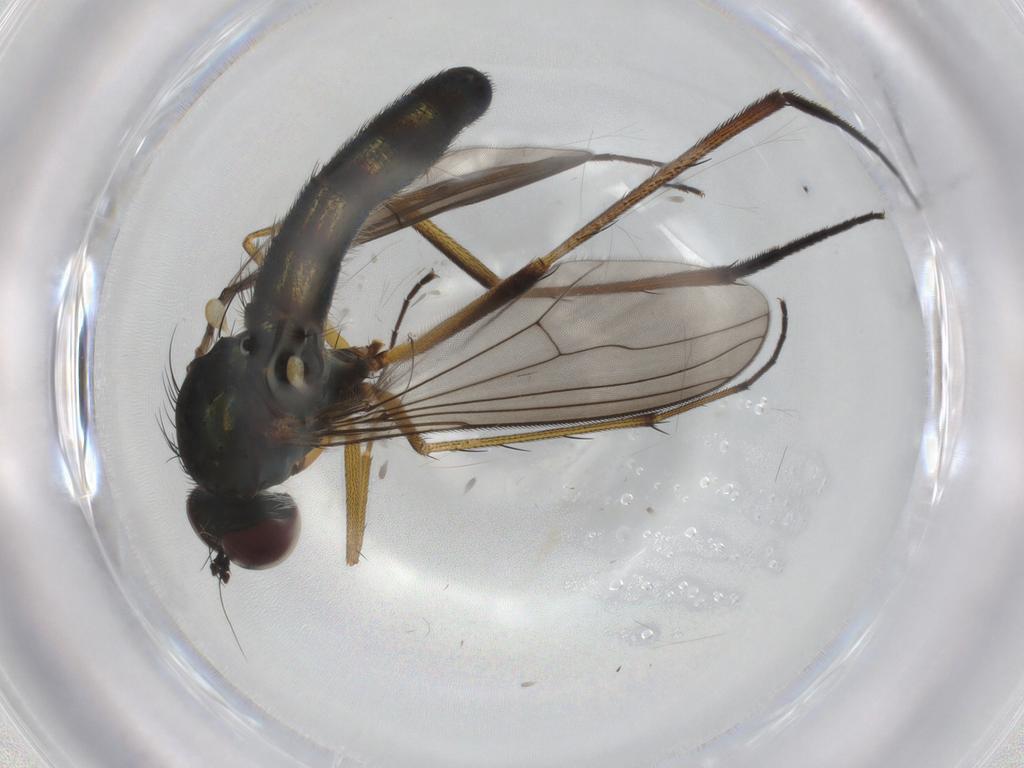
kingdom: Animalia
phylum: Arthropoda
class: Insecta
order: Diptera
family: Dolichopodidae
